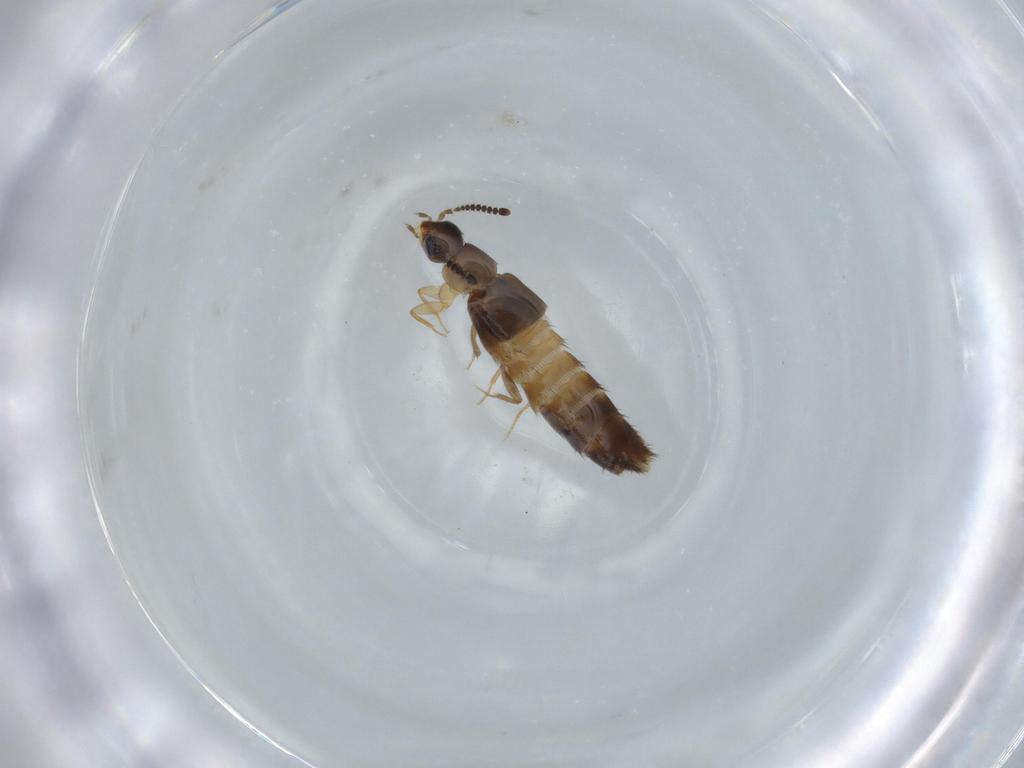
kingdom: Animalia
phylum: Arthropoda
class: Insecta
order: Coleoptera
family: Staphylinidae
